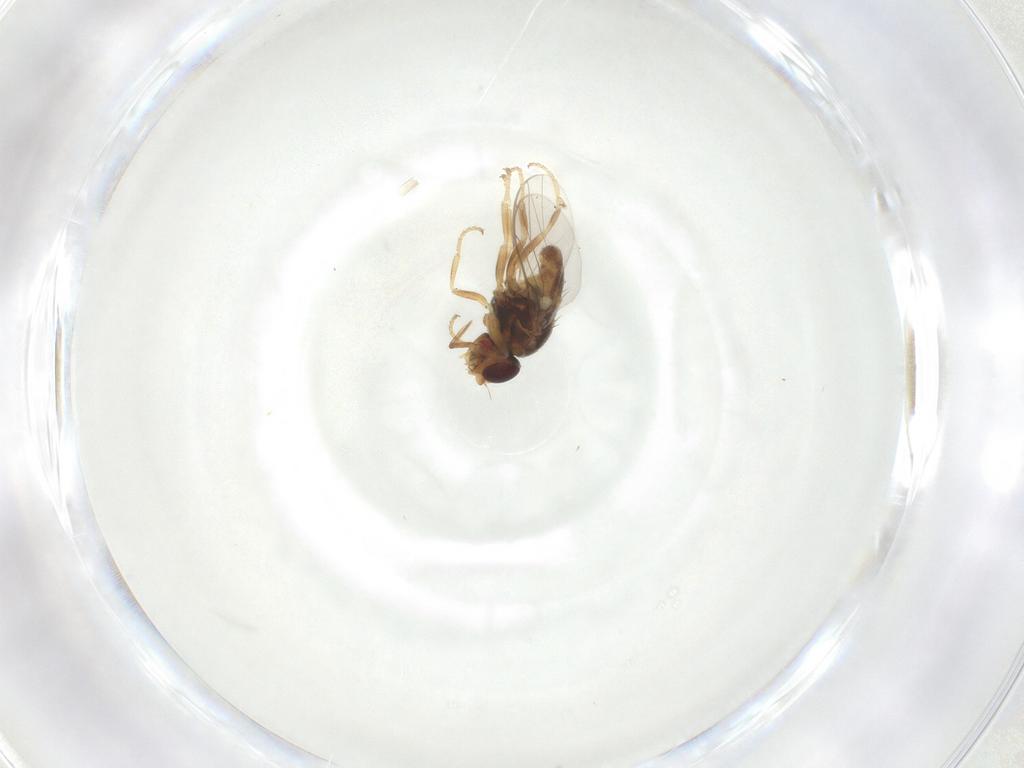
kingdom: Animalia
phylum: Arthropoda
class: Insecta
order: Diptera
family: Chloropidae
